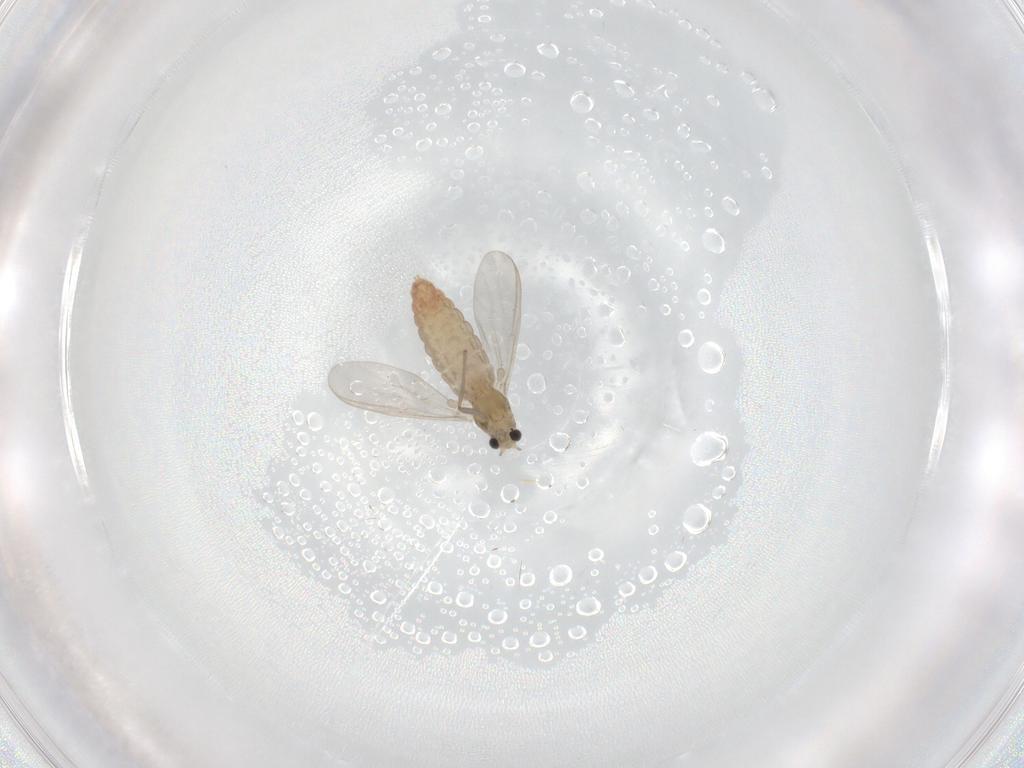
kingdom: Animalia
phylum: Arthropoda
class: Insecta
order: Diptera
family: Chironomidae
